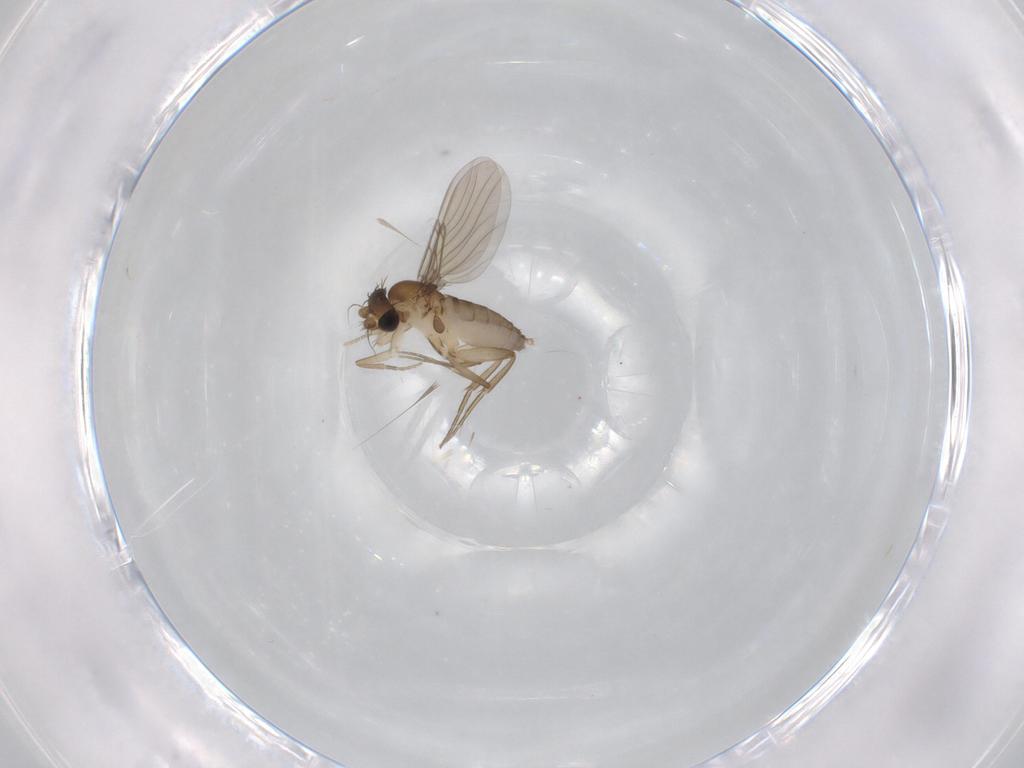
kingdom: Animalia
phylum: Arthropoda
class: Insecta
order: Diptera
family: Phoridae
